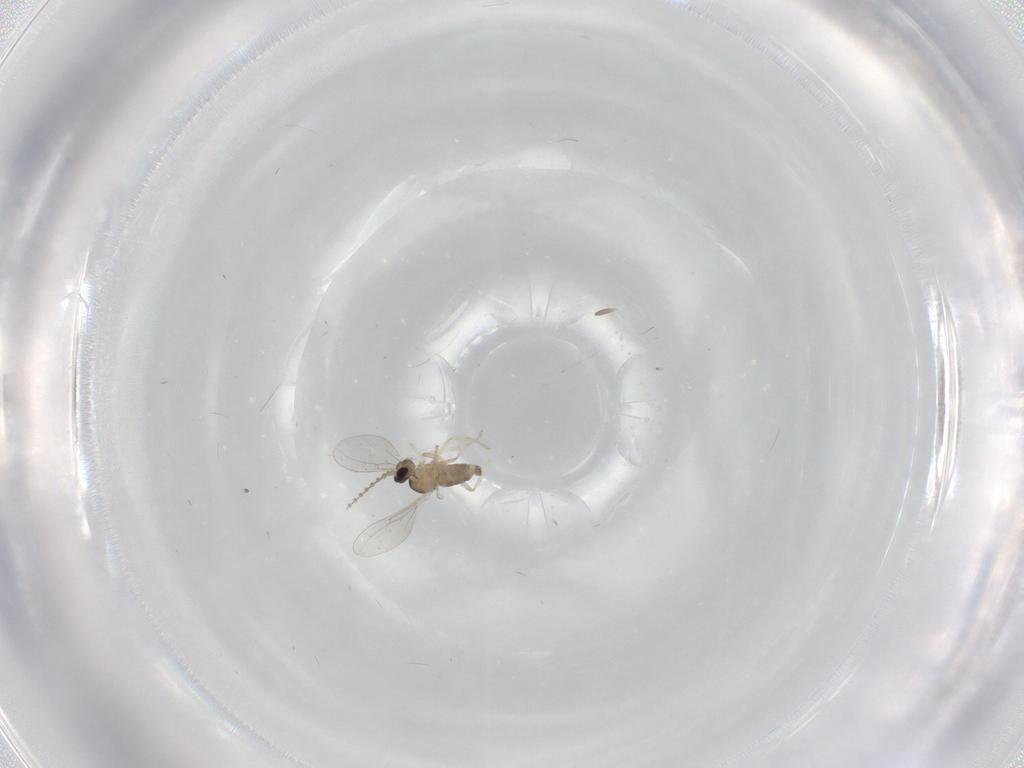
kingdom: Animalia
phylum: Arthropoda
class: Insecta
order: Diptera
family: Cecidomyiidae
